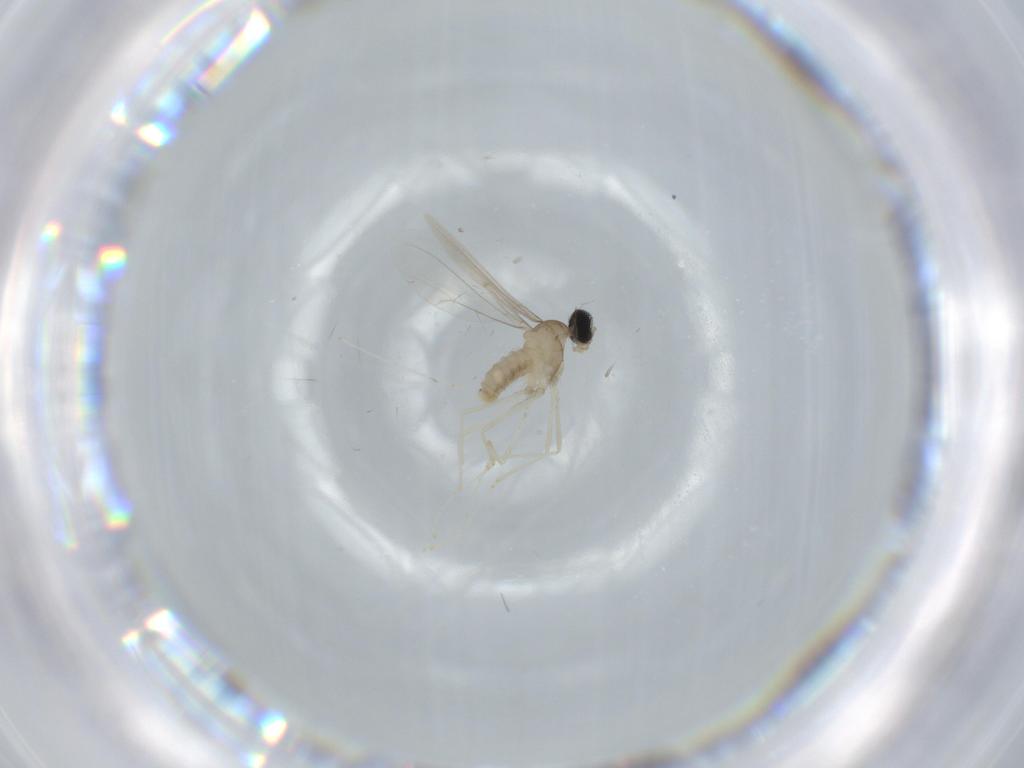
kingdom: Animalia
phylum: Arthropoda
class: Insecta
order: Diptera
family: Cecidomyiidae
